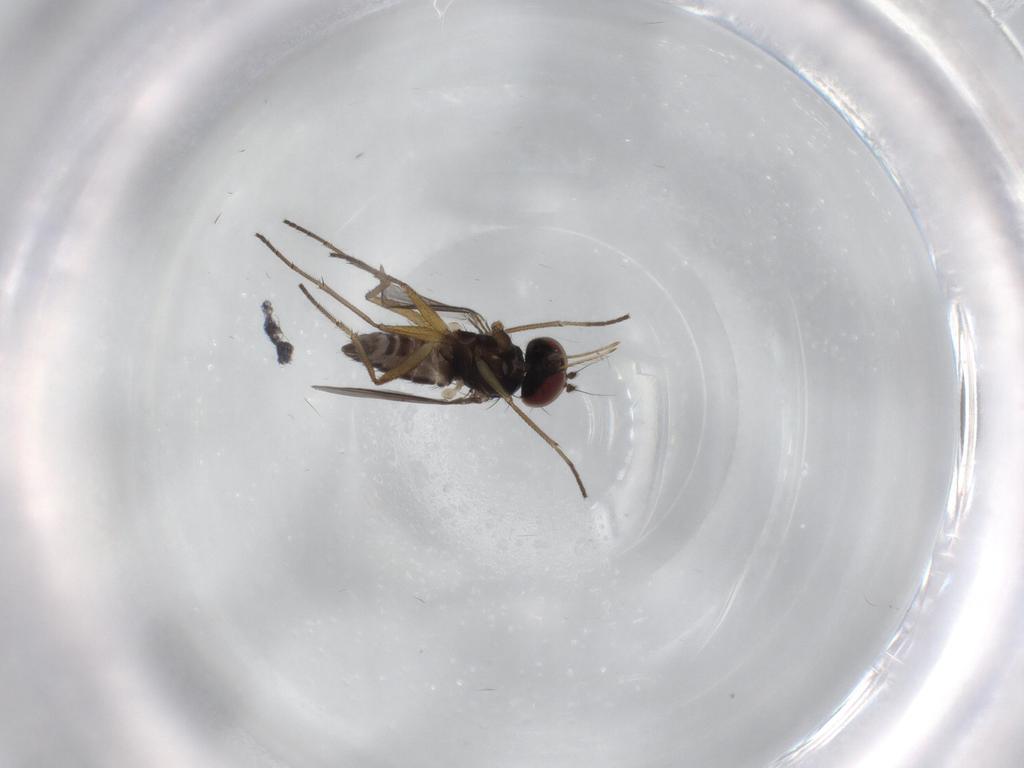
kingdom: Animalia
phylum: Arthropoda
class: Insecta
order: Diptera
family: Dolichopodidae
